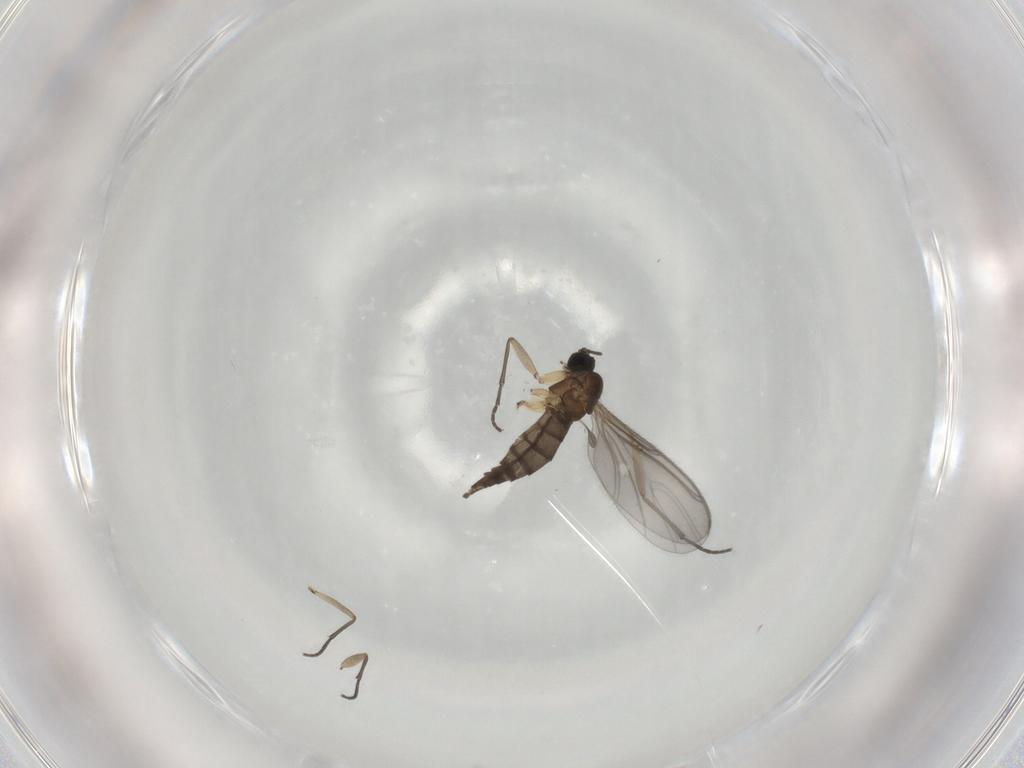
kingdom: Animalia
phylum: Arthropoda
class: Insecta
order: Diptera
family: Sciaridae
